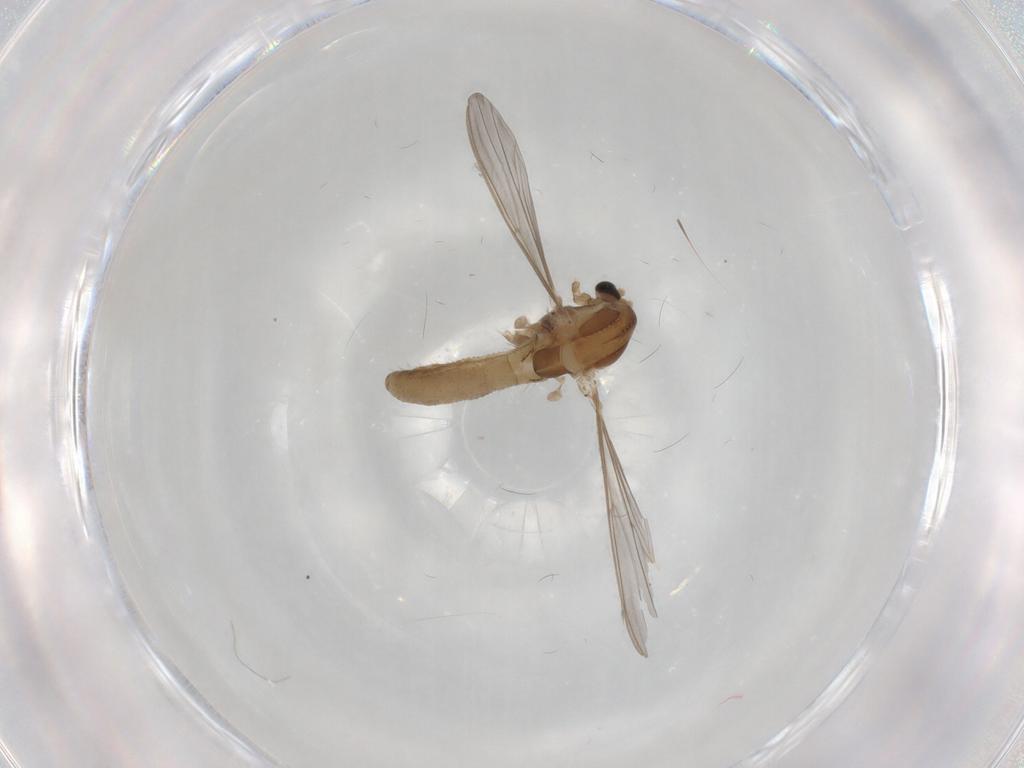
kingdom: Animalia
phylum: Arthropoda
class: Insecta
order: Diptera
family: Chironomidae
